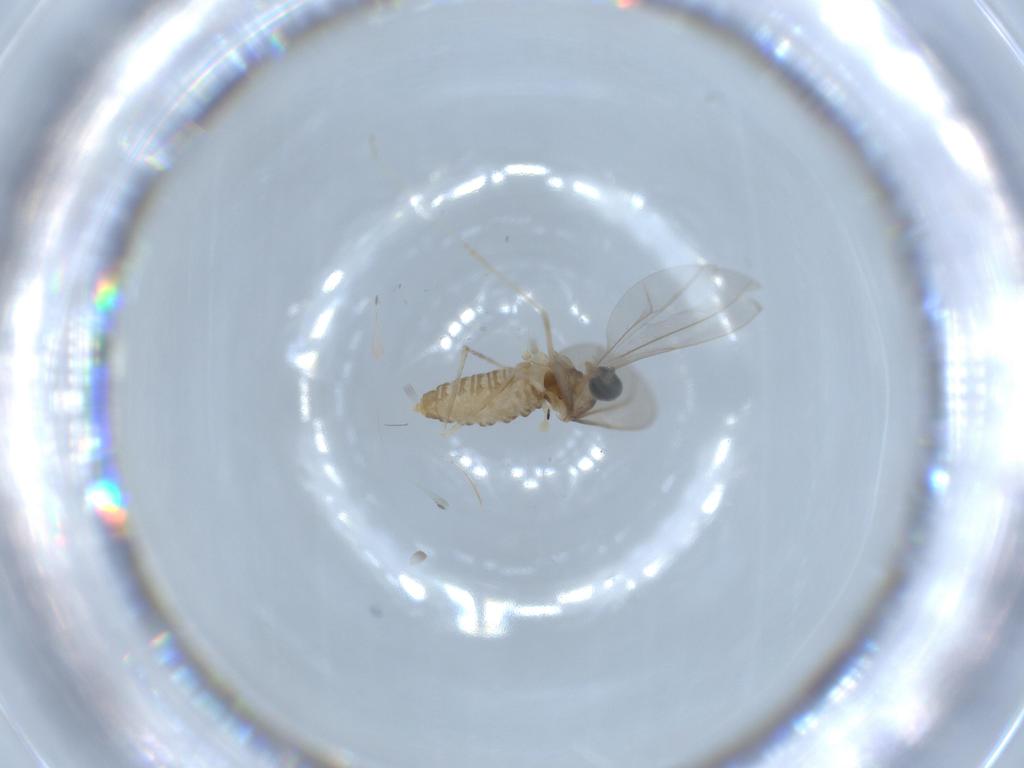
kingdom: Animalia
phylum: Arthropoda
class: Insecta
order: Diptera
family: Cecidomyiidae
